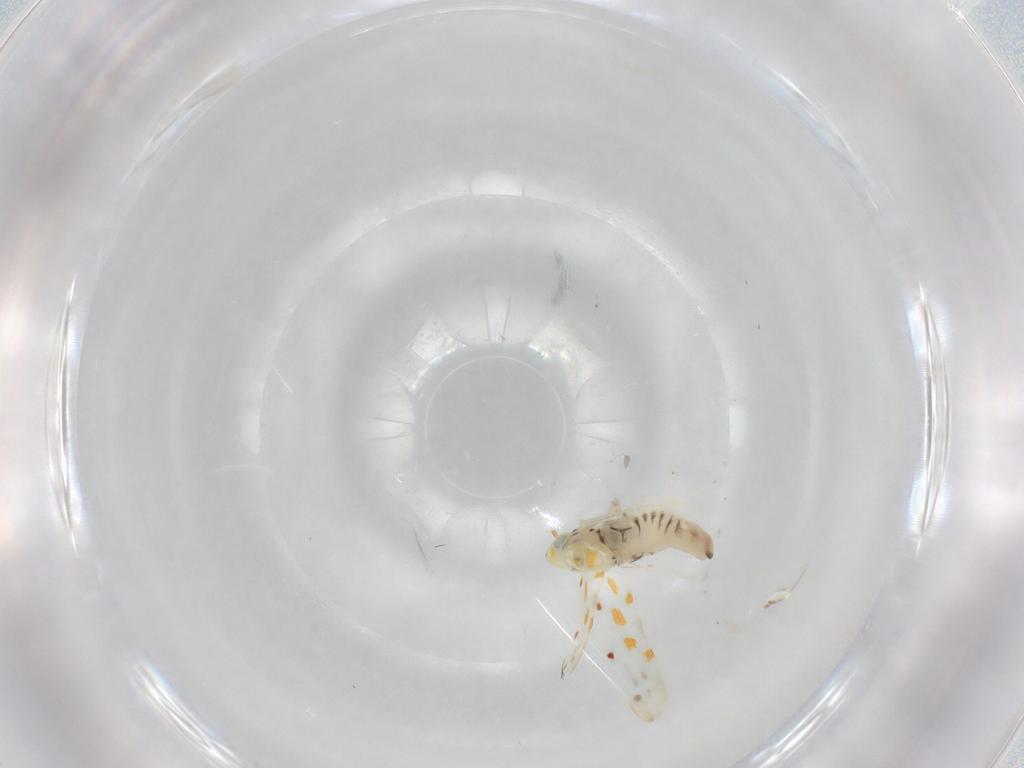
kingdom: Animalia
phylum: Arthropoda
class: Insecta
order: Hemiptera
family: Cicadellidae
